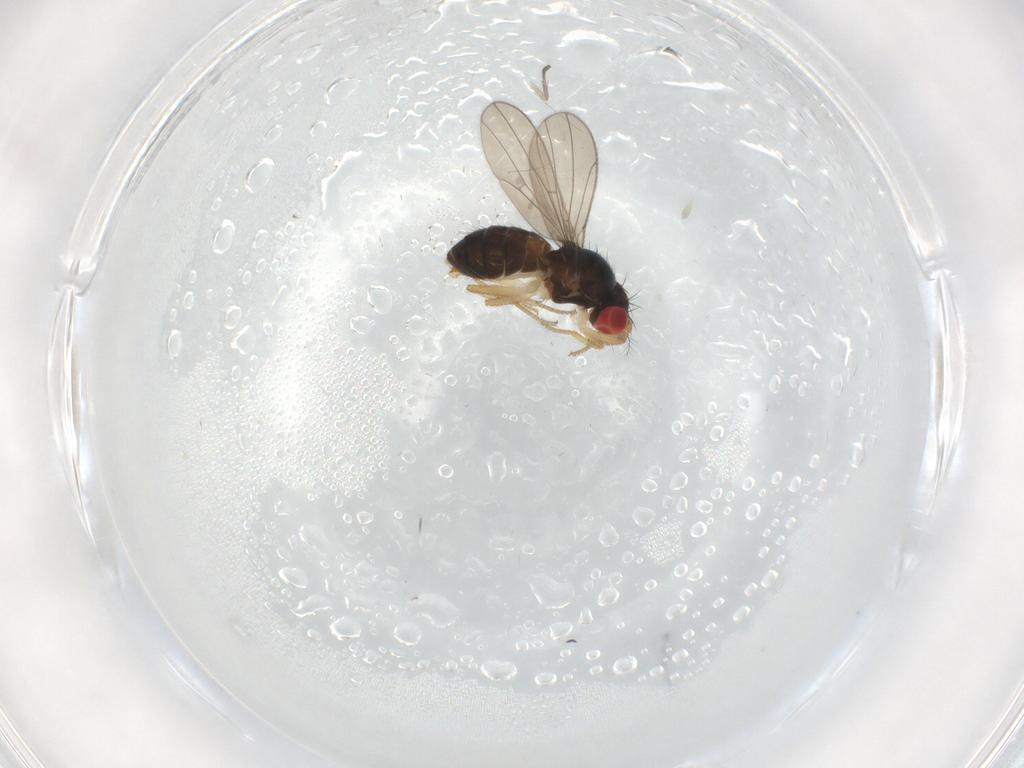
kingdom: Animalia
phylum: Arthropoda
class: Insecta
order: Diptera
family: Drosophilidae
